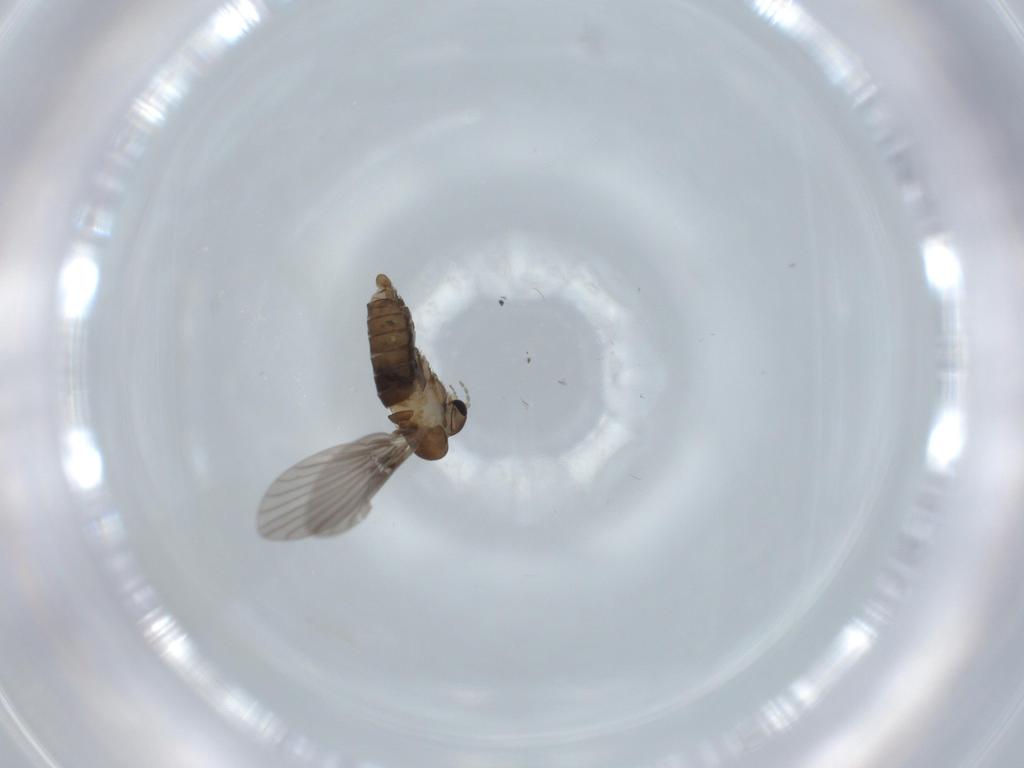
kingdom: Animalia
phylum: Arthropoda
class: Insecta
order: Diptera
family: Psychodidae
